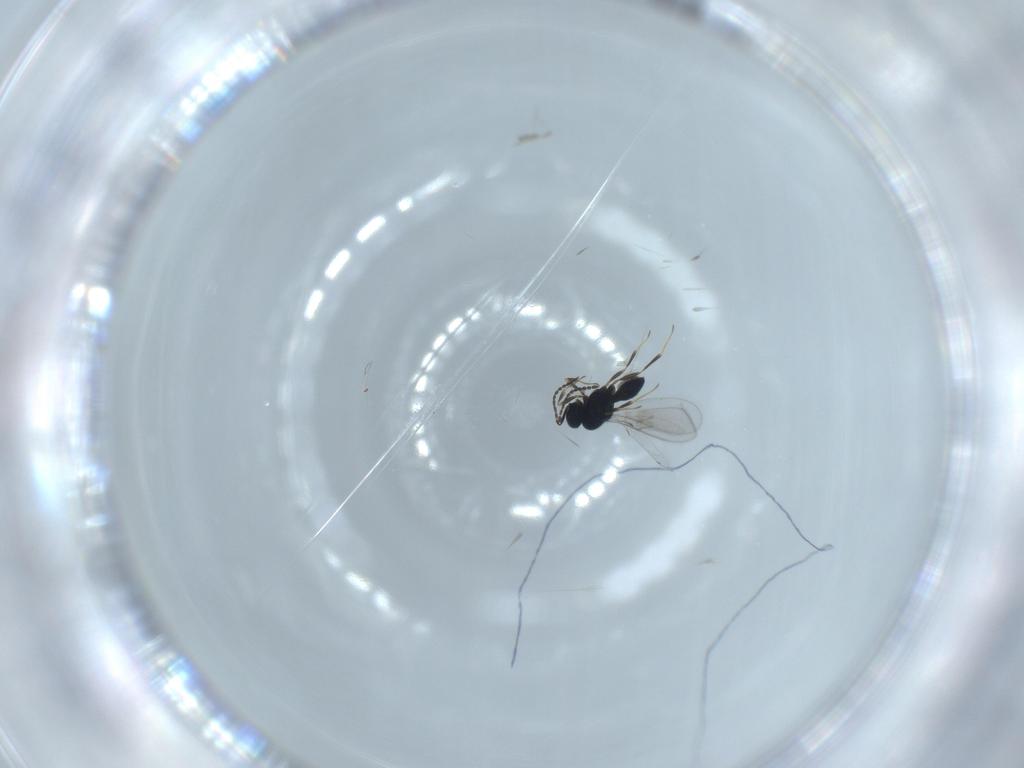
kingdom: Animalia
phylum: Arthropoda
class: Insecta
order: Hymenoptera
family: Scelionidae
